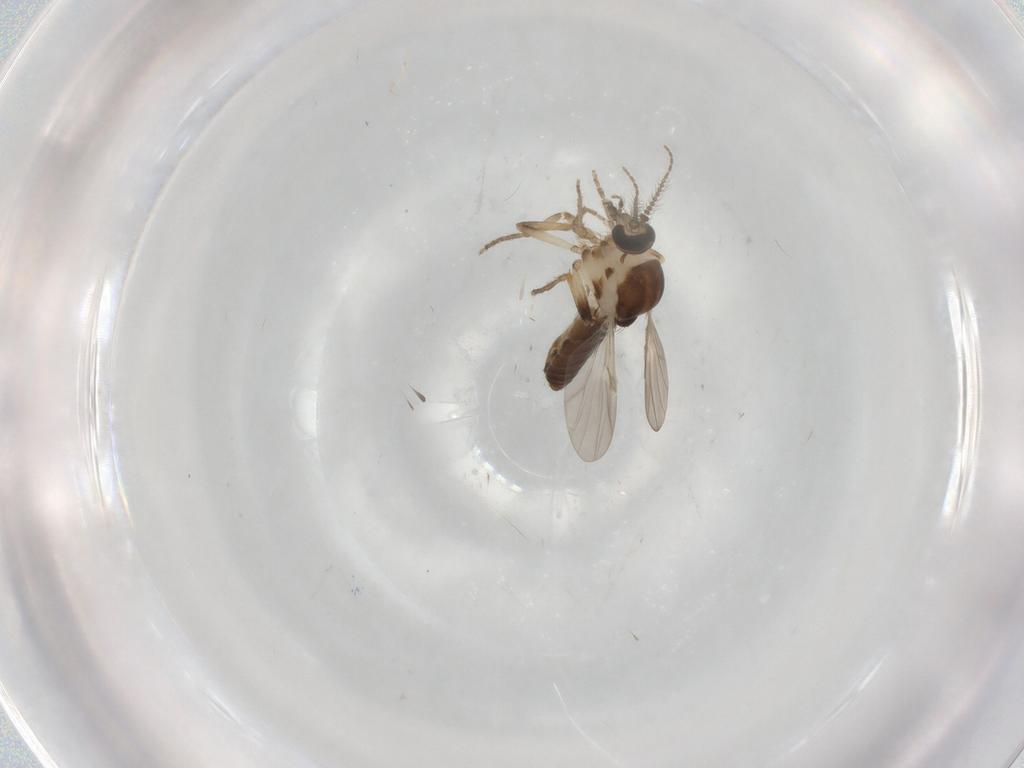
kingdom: Animalia
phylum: Arthropoda
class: Insecta
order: Diptera
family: Ceratopogonidae
